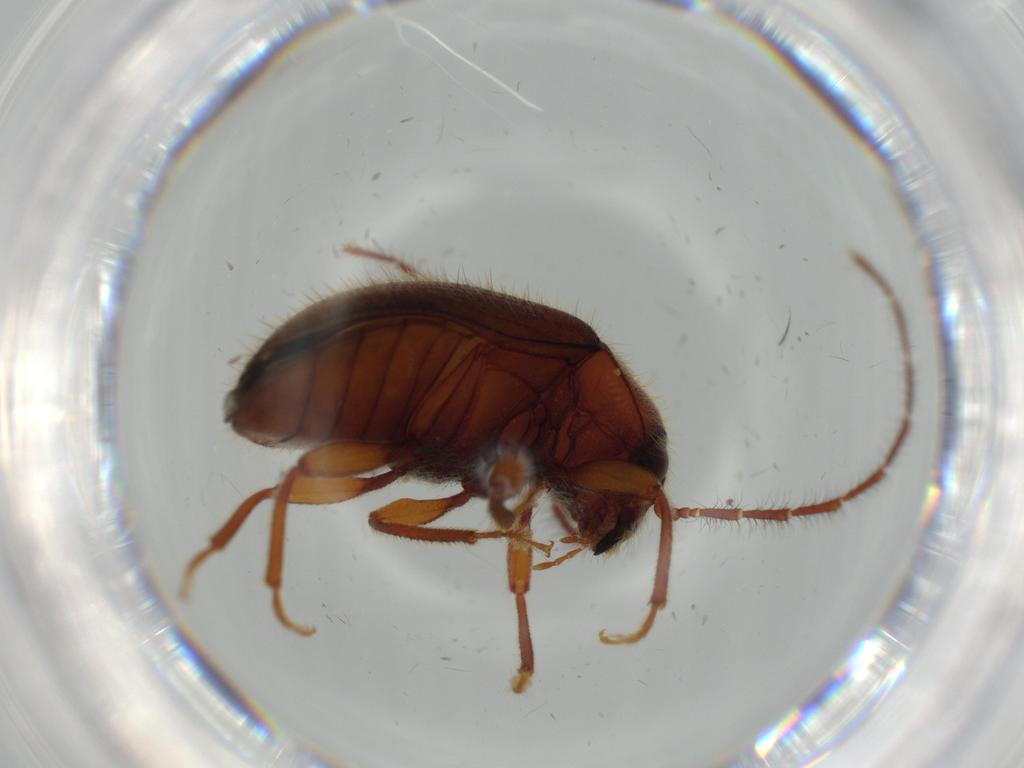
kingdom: Animalia
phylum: Arthropoda
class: Insecta
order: Coleoptera
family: Artematopodidae
